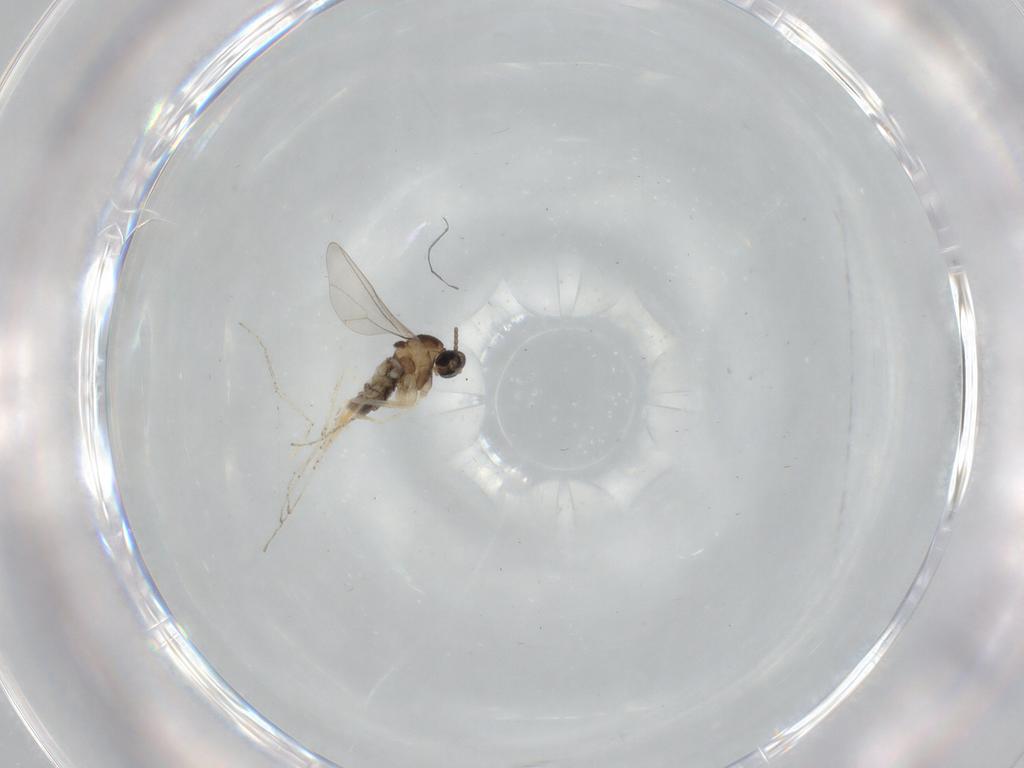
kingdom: Animalia
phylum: Arthropoda
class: Insecta
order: Diptera
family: Cecidomyiidae
